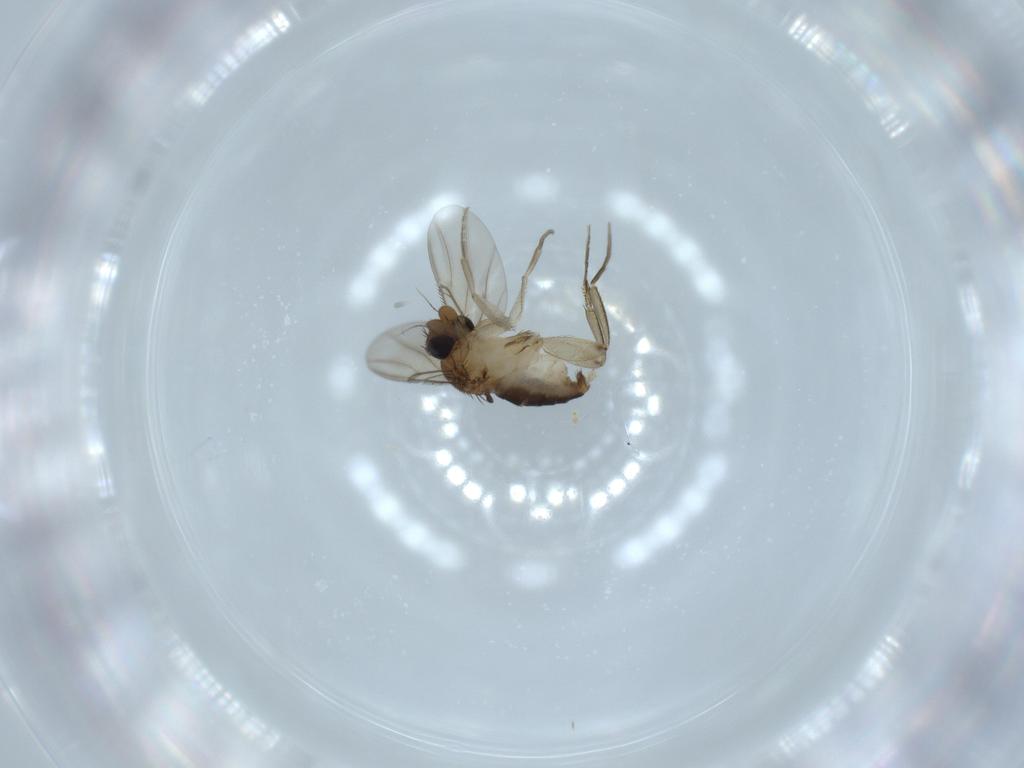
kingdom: Animalia
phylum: Arthropoda
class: Insecta
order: Diptera
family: Phoridae
